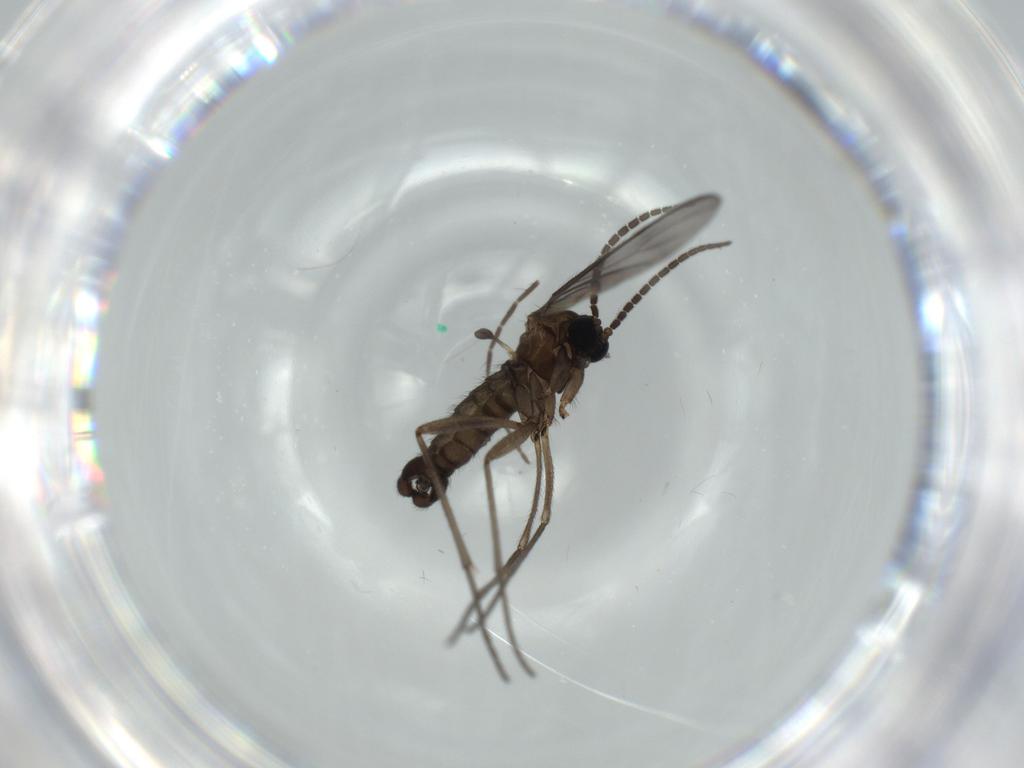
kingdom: Animalia
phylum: Arthropoda
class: Insecta
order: Diptera
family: Sciaridae
